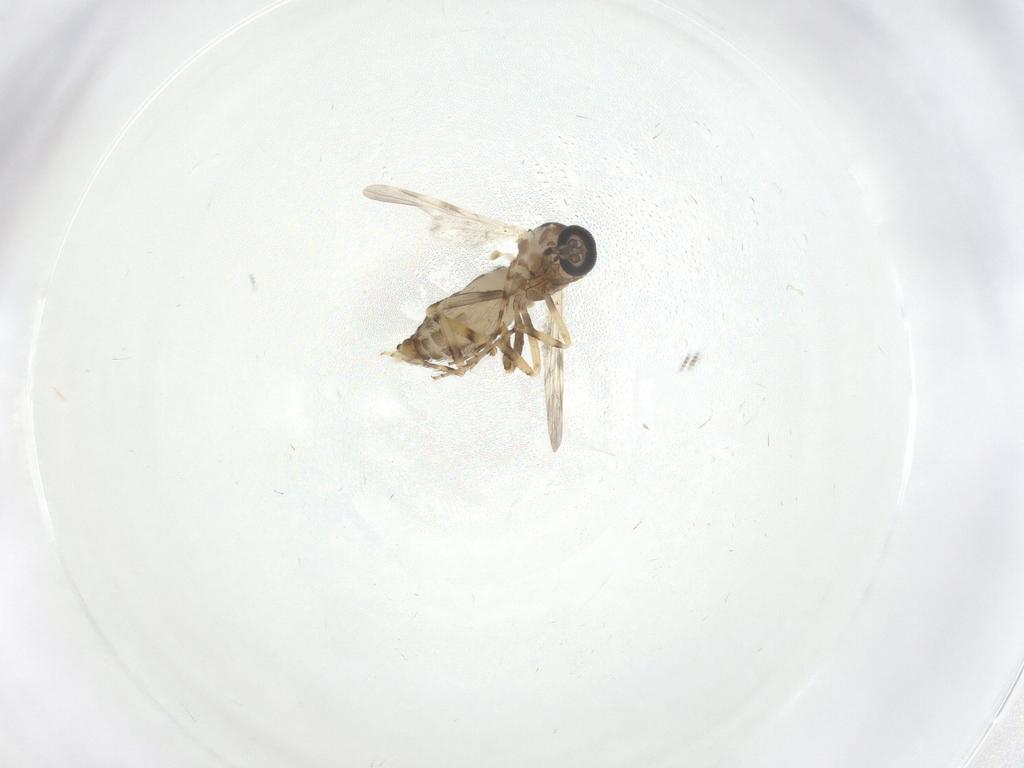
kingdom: Animalia
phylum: Arthropoda
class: Insecta
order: Diptera
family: Ceratopogonidae
